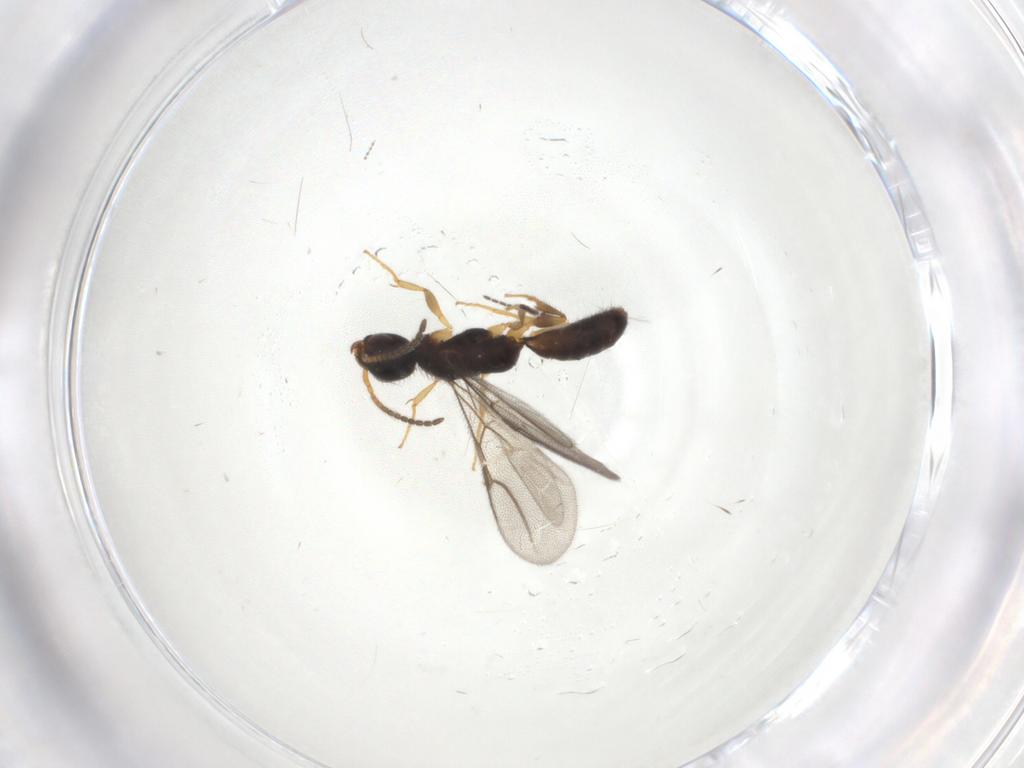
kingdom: Animalia
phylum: Arthropoda
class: Insecta
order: Hymenoptera
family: Bethylidae
